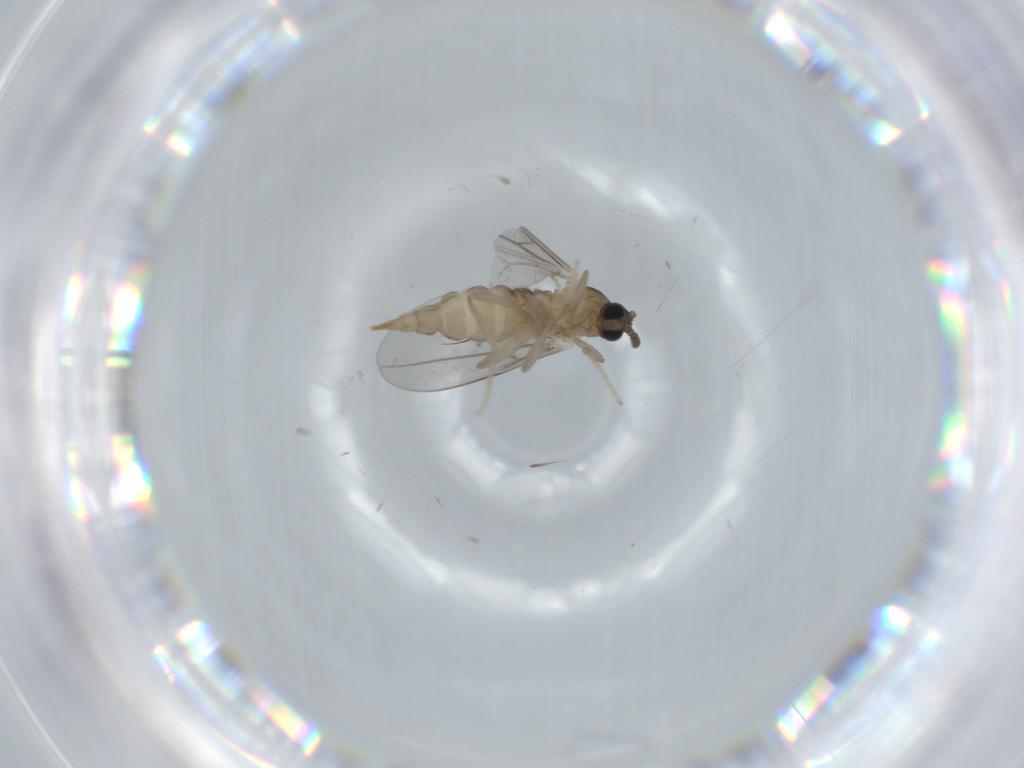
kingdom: Animalia
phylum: Arthropoda
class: Insecta
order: Diptera
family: Cecidomyiidae
